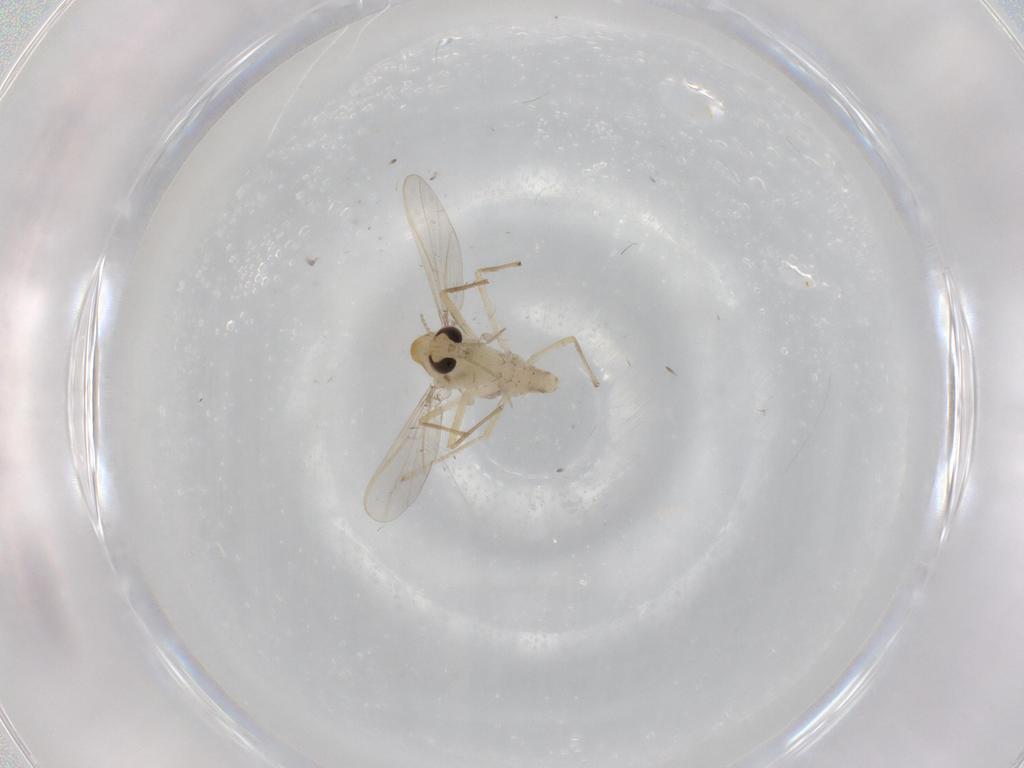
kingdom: Animalia
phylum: Arthropoda
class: Insecta
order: Diptera
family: Chironomidae
